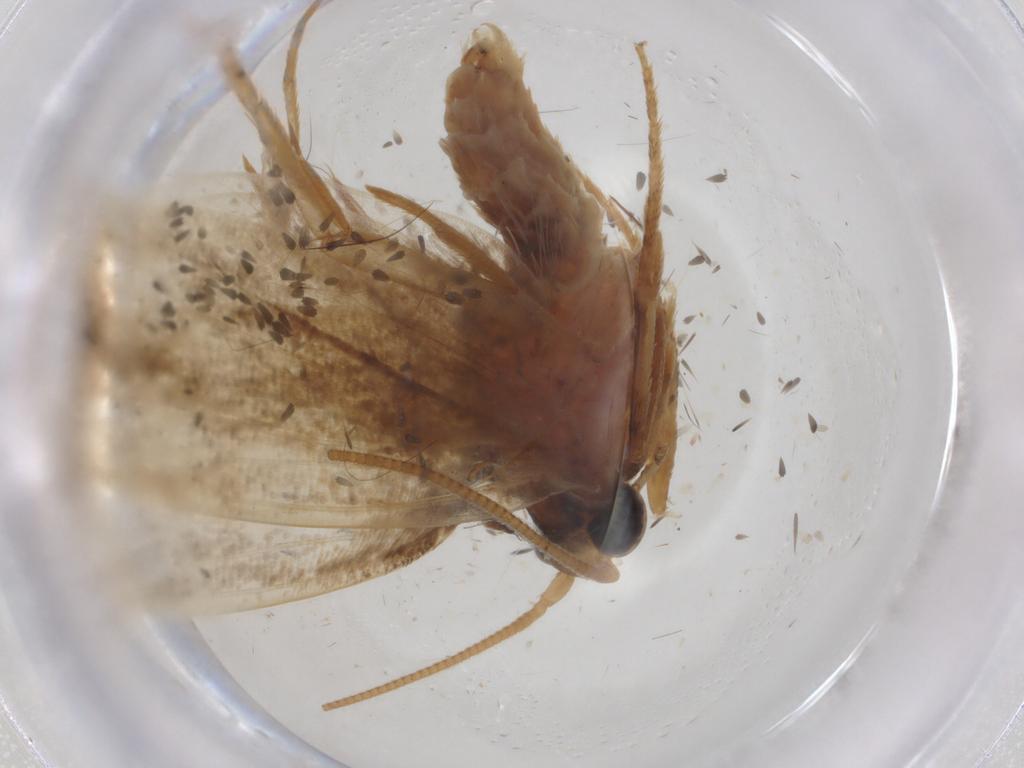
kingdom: Animalia
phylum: Arthropoda
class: Insecta
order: Lepidoptera
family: Tineidae
